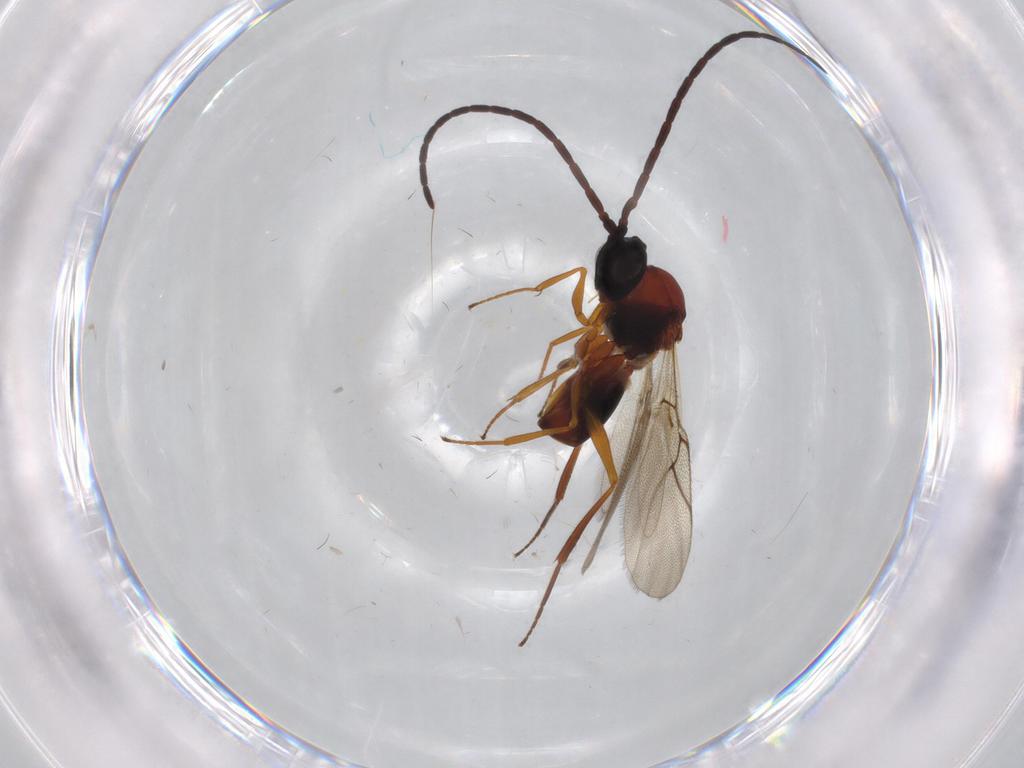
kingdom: Animalia
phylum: Arthropoda
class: Insecta
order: Hymenoptera
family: Figitidae
